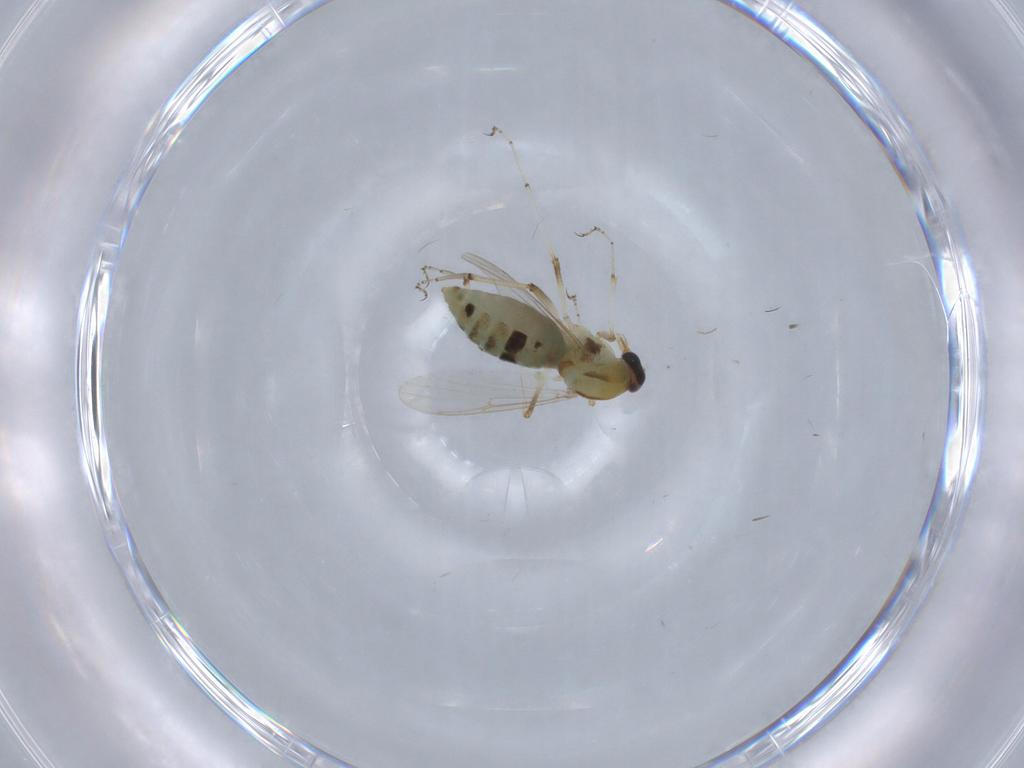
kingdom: Animalia
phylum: Arthropoda
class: Insecta
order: Diptera
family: Ceratopogonidae
